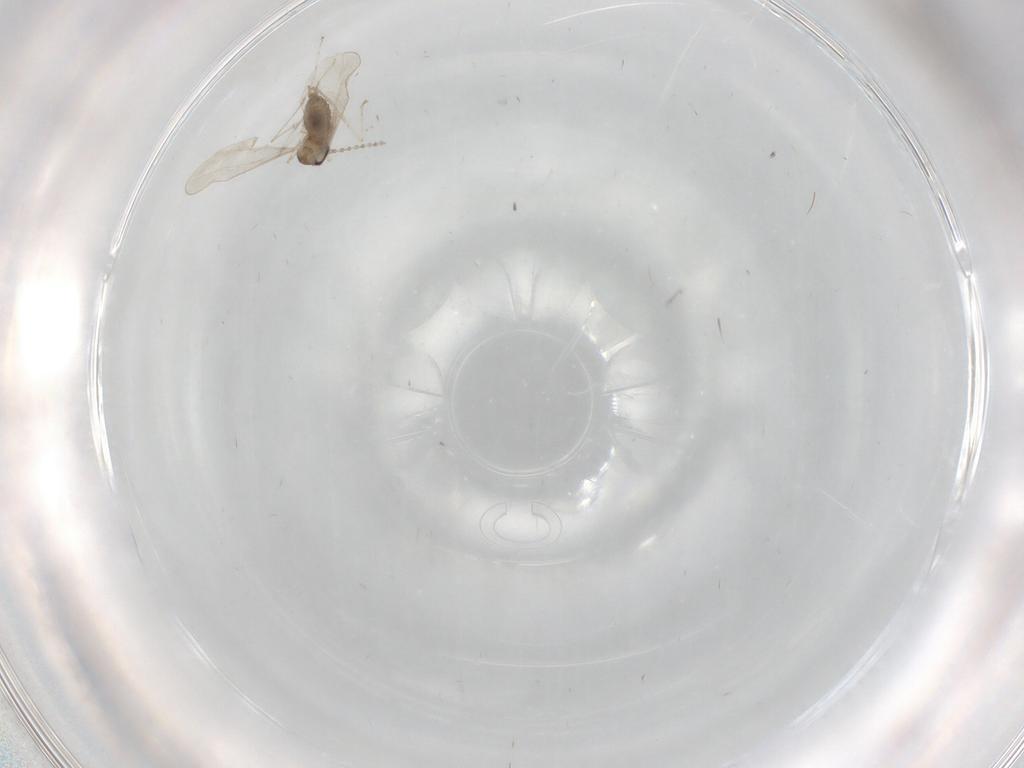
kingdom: Animalia
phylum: Arthropoda
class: Insecta
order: Diptera
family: Cecidomyiidae
